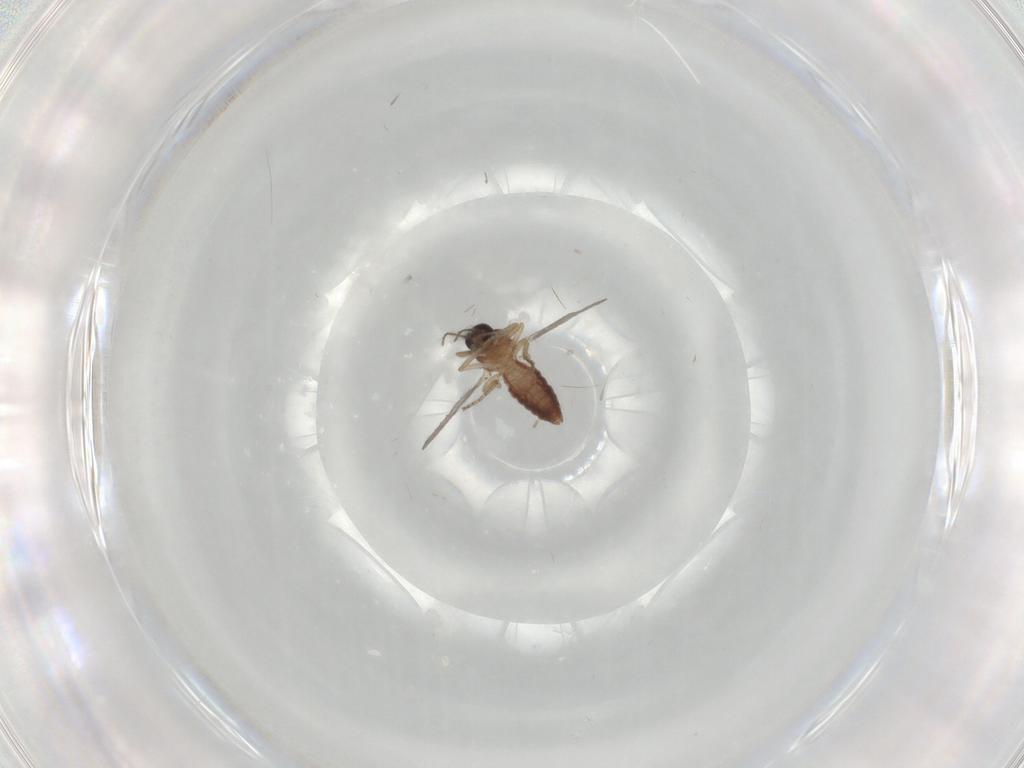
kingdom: Animalia
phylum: Arthropoda
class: Insecta
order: Diptera
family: Ceratopogonidae
